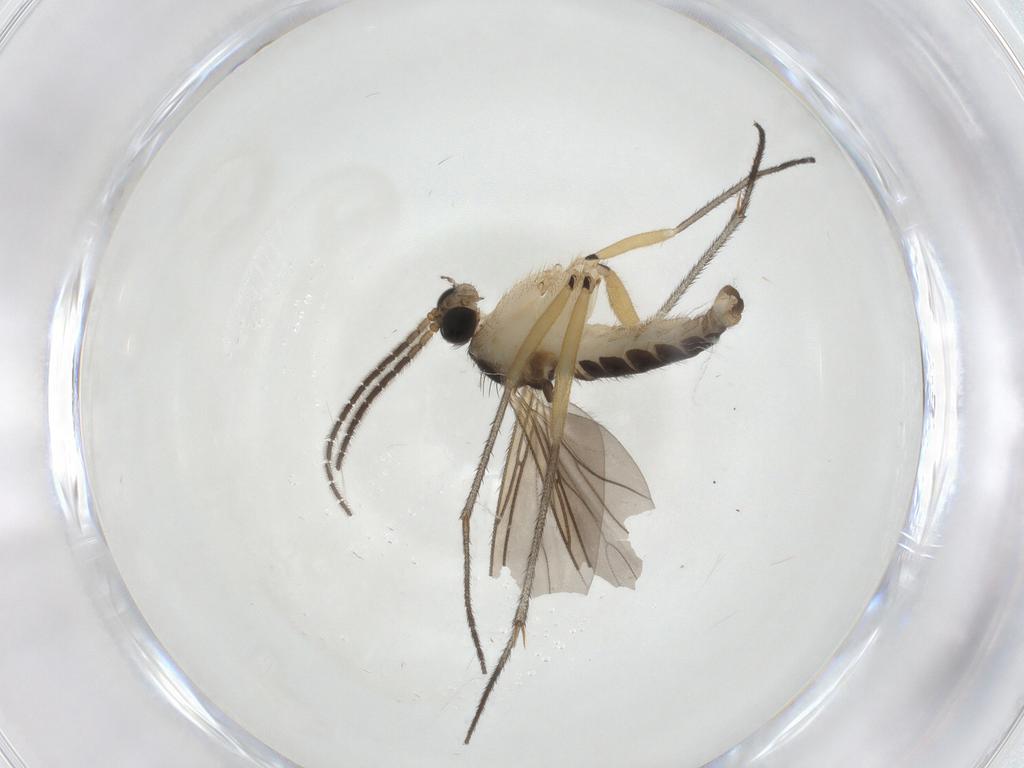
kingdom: Animalia
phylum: Arthropoda
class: Insecta
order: Diptera
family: Sciaridae
